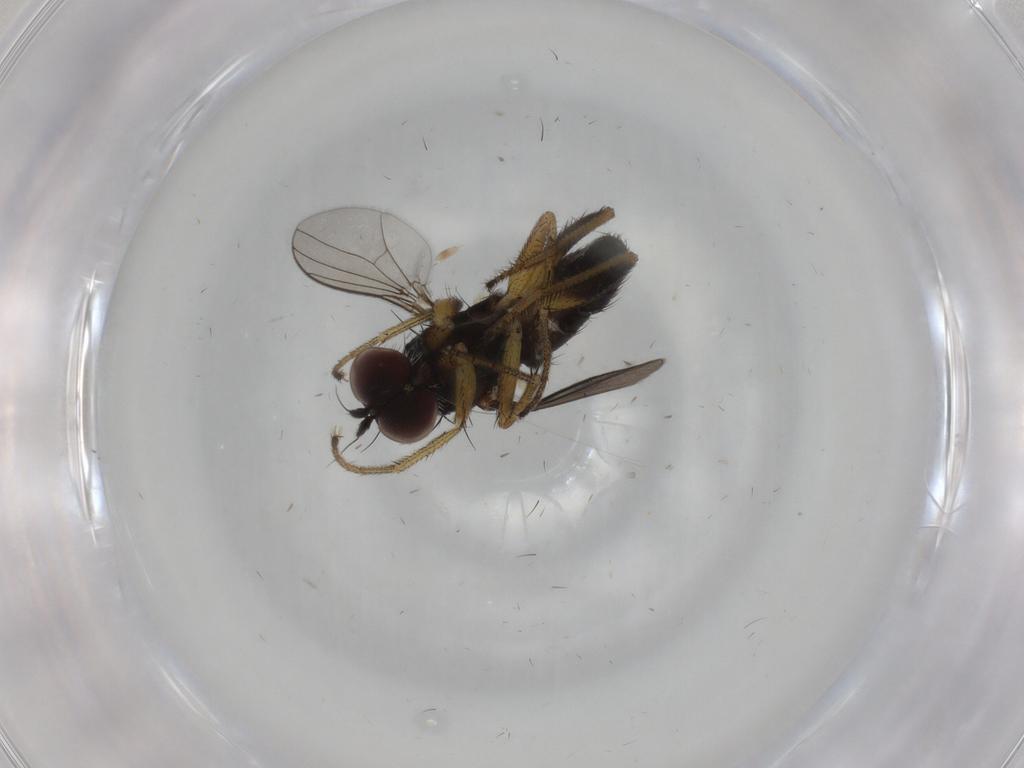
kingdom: Animalia
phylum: Arthropoda
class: Insecta
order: Diptera
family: Dolichopodidae
